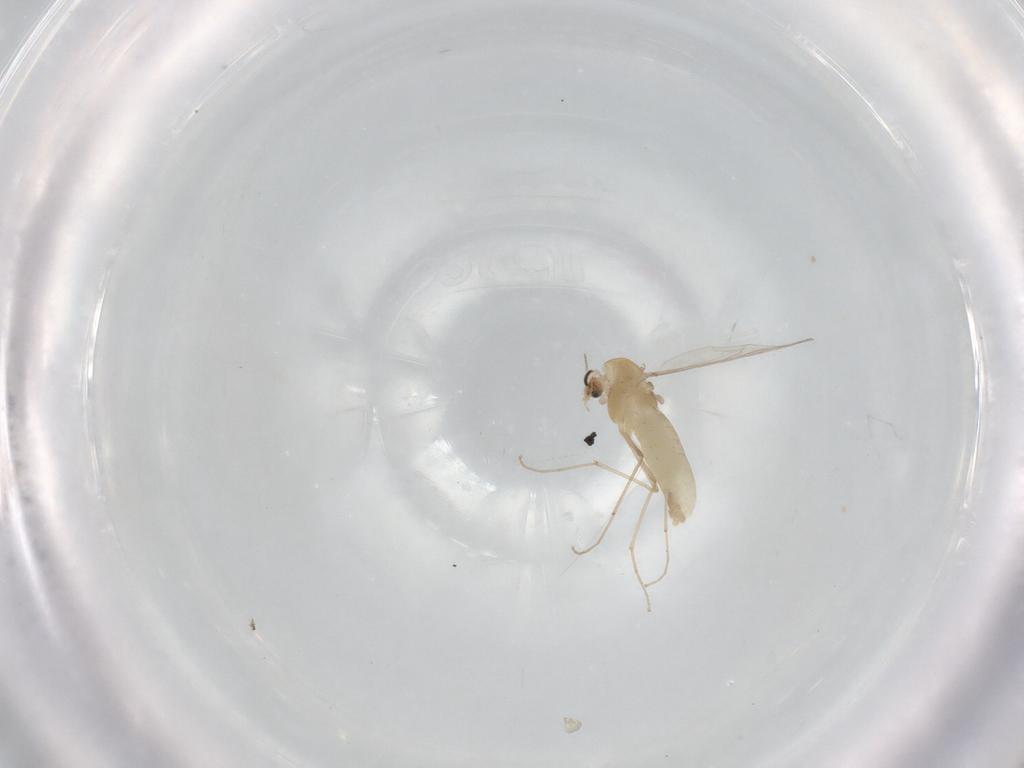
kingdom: Animalia
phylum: Arthropoda
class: Insecta
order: Diptera
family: Chironomidae
